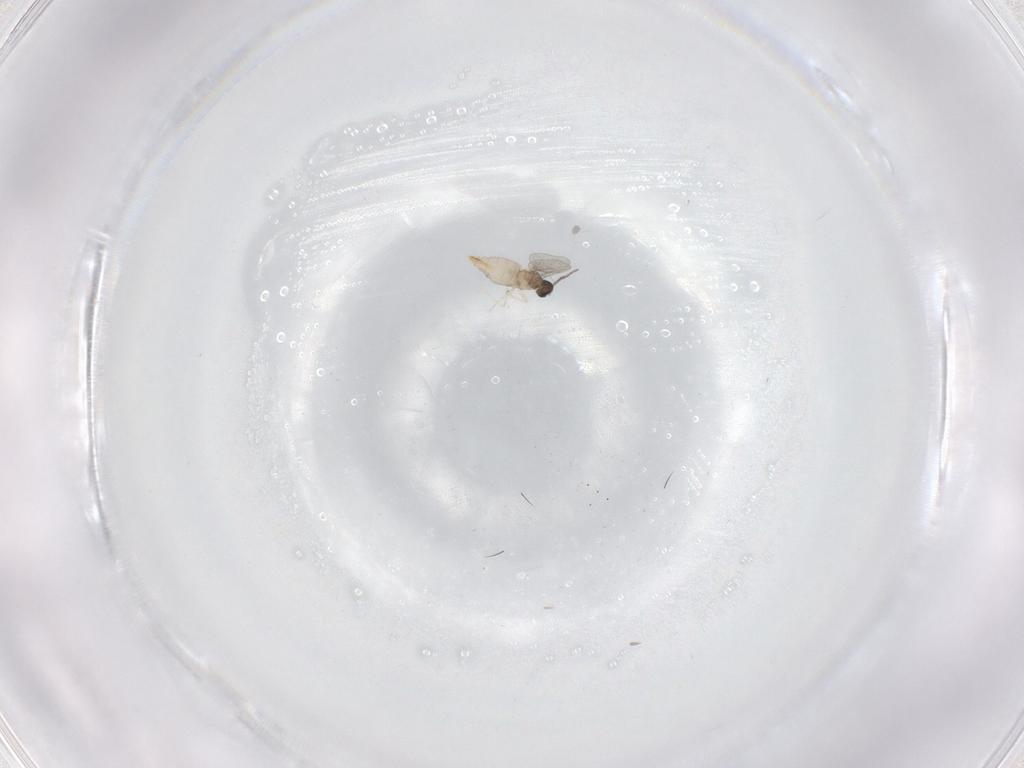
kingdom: Animalia
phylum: Arthropoda
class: Insecta
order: Diptera
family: Cecidomyiidae
